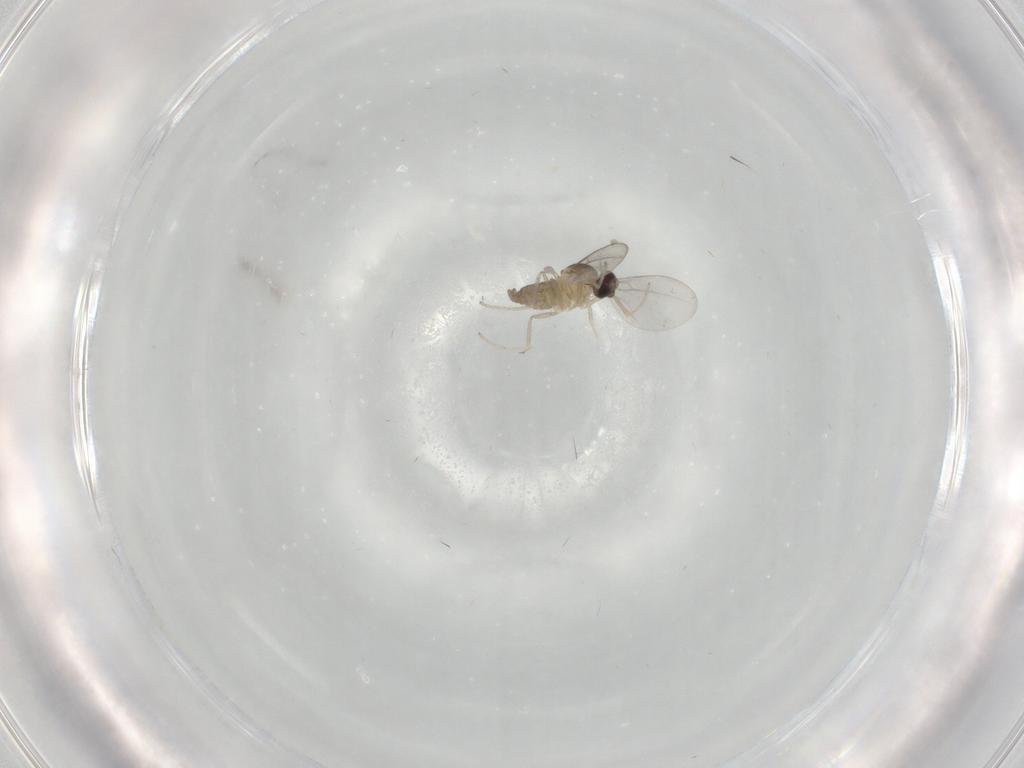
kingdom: Animalia
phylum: Arthropoda
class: Insecta
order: Diptera
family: Cecidomyiidae
